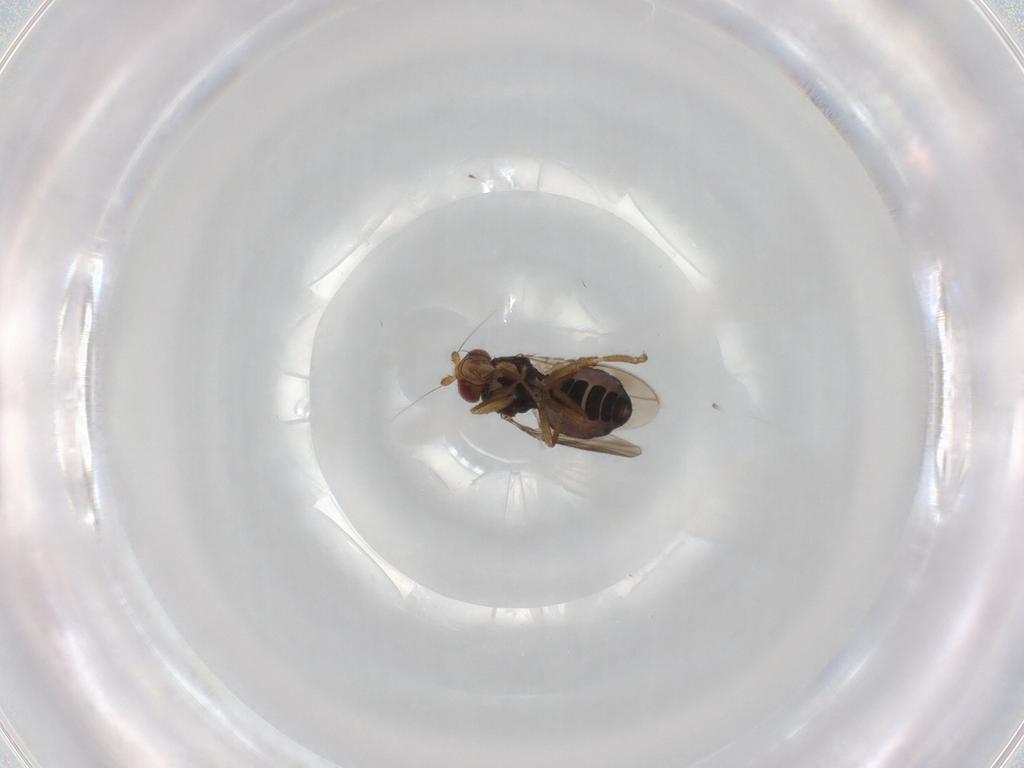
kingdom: Animalia
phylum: Arthropoda
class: Insecta
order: Diptera
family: Sphaeroceridae
